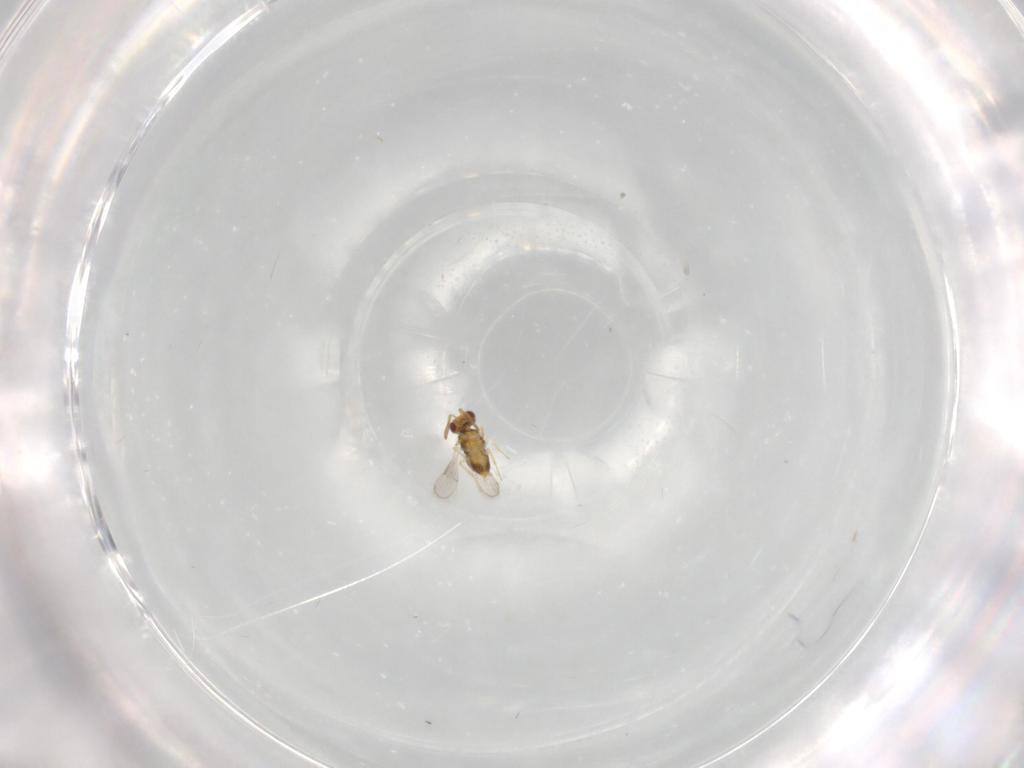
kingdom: Animalia
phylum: Arthropoda
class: Insecta
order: Hymenoptera
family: Aphelinidae
